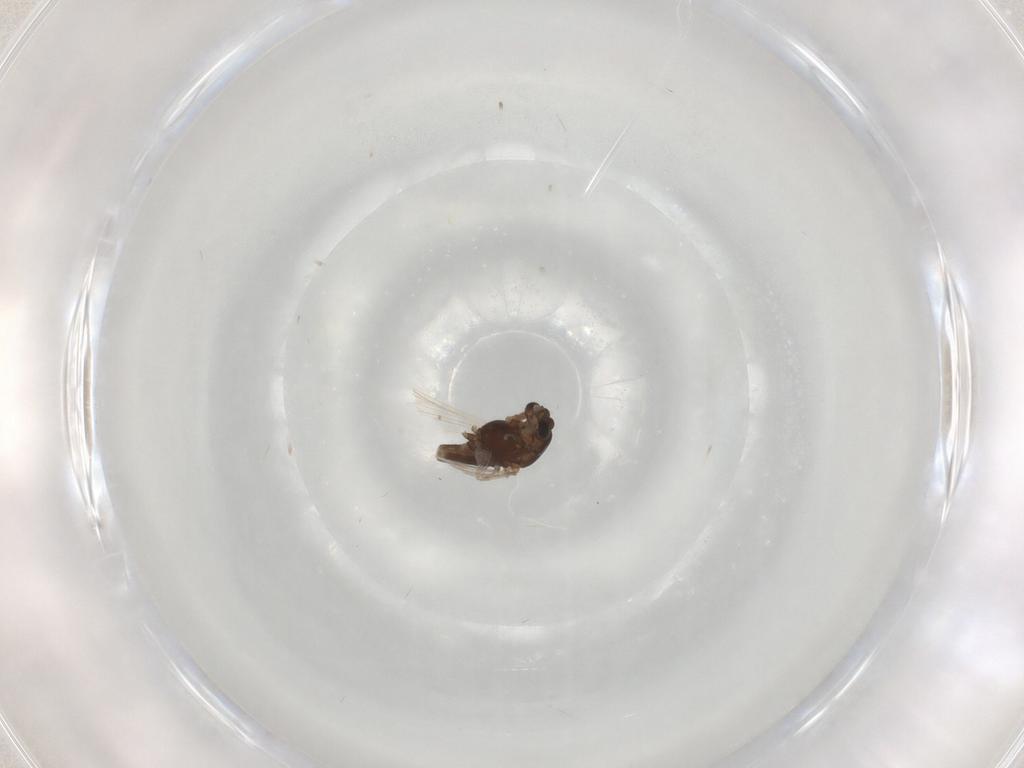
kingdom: Animalia
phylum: Arthropoda
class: Insecta
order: Diptera
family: Chironomidae
